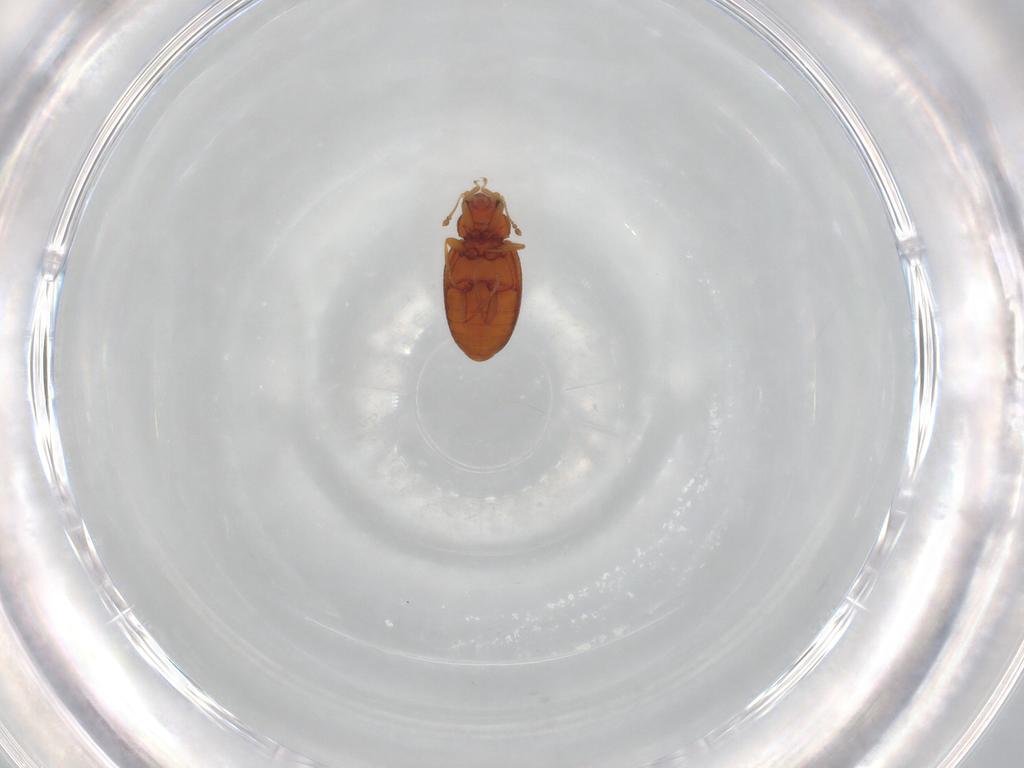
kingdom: Animalia
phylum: Arthropoda
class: Insecta
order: Coleoptera
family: Latridiidae
